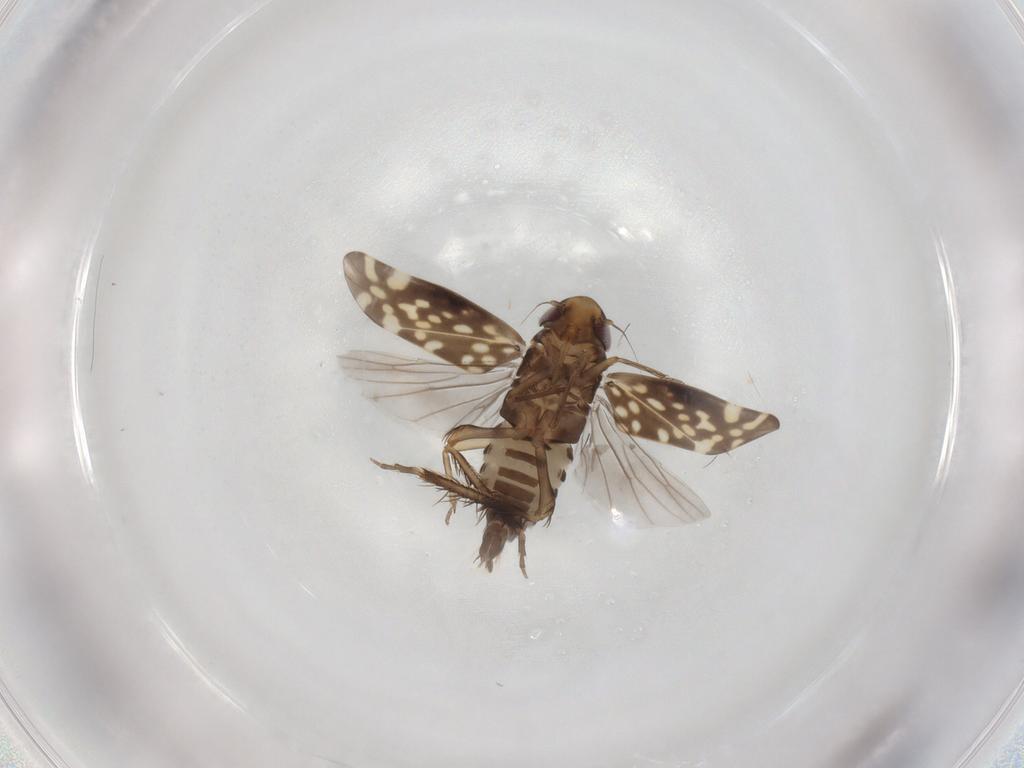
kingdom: Animalia
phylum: Arthropoda
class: Insecta
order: Hemiptera
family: Cicadellidae
